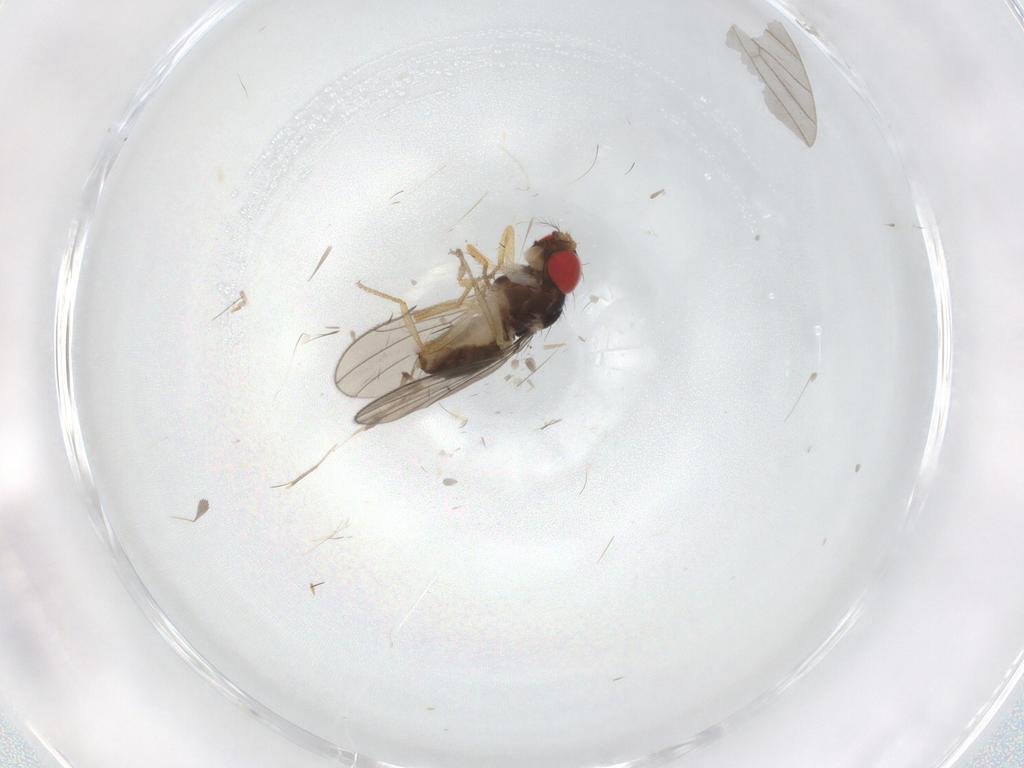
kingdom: Animalia
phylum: Arthropoda
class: Insecta
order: Diptera
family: Drosophilidae
